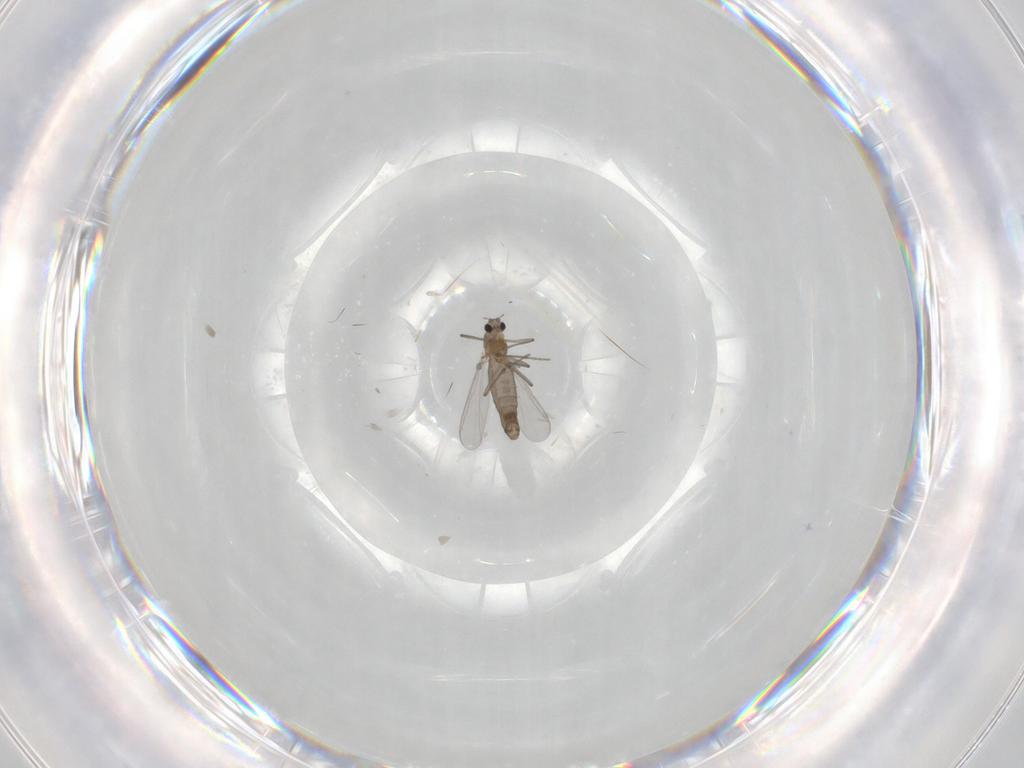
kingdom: Animalia
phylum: Arthropoda
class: Insecta
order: Diptera
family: Chironomidae
